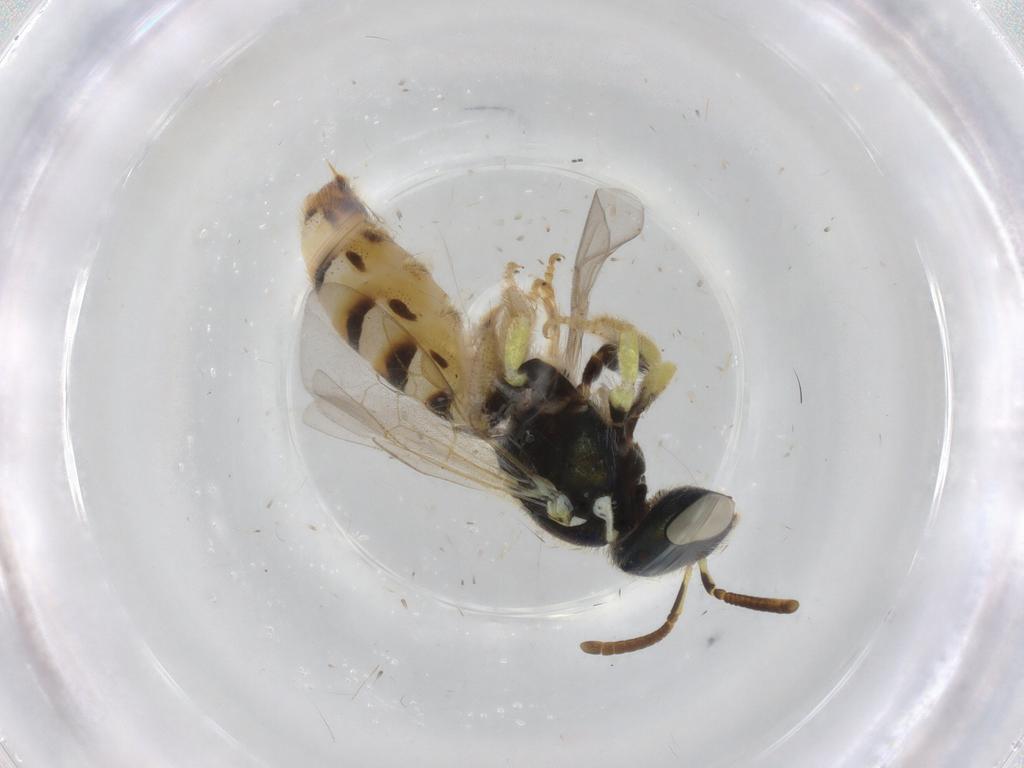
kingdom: Animalia
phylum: Arthropoda
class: Insecta
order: Hymenoptera
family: Halictidae
